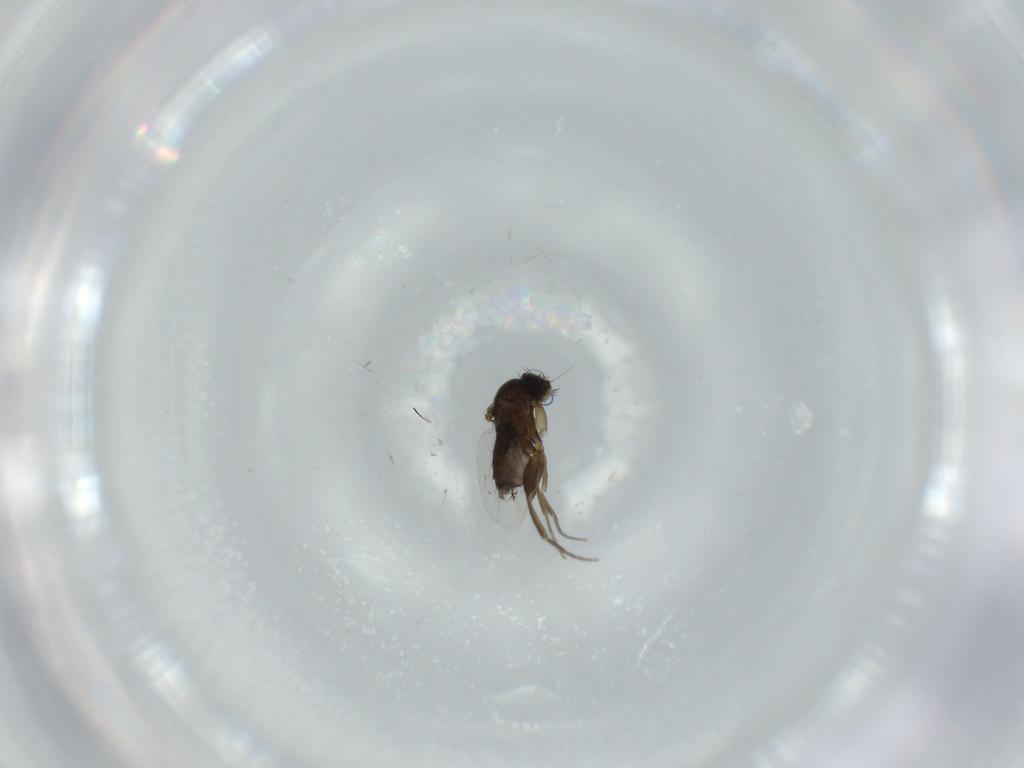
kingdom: Animalia
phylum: Arthropoda
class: Insecta
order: Diptera
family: Phoridae
